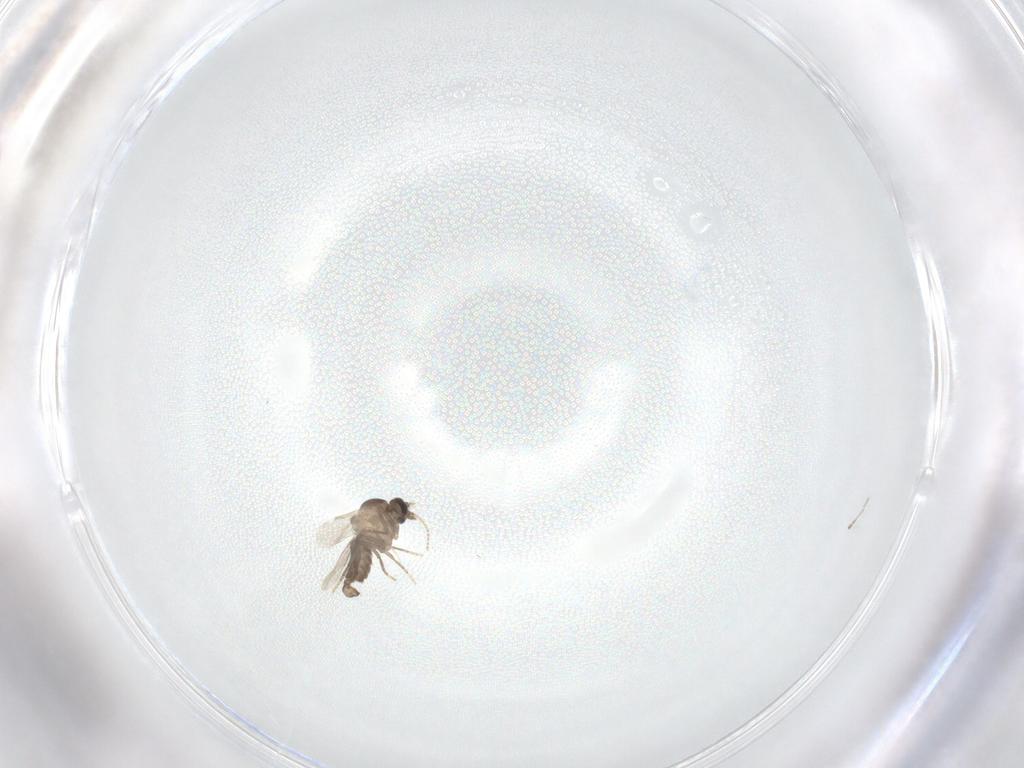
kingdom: Animalia
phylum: Arthropoda
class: Insecta
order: Diptera
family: Ceratopogonidae
